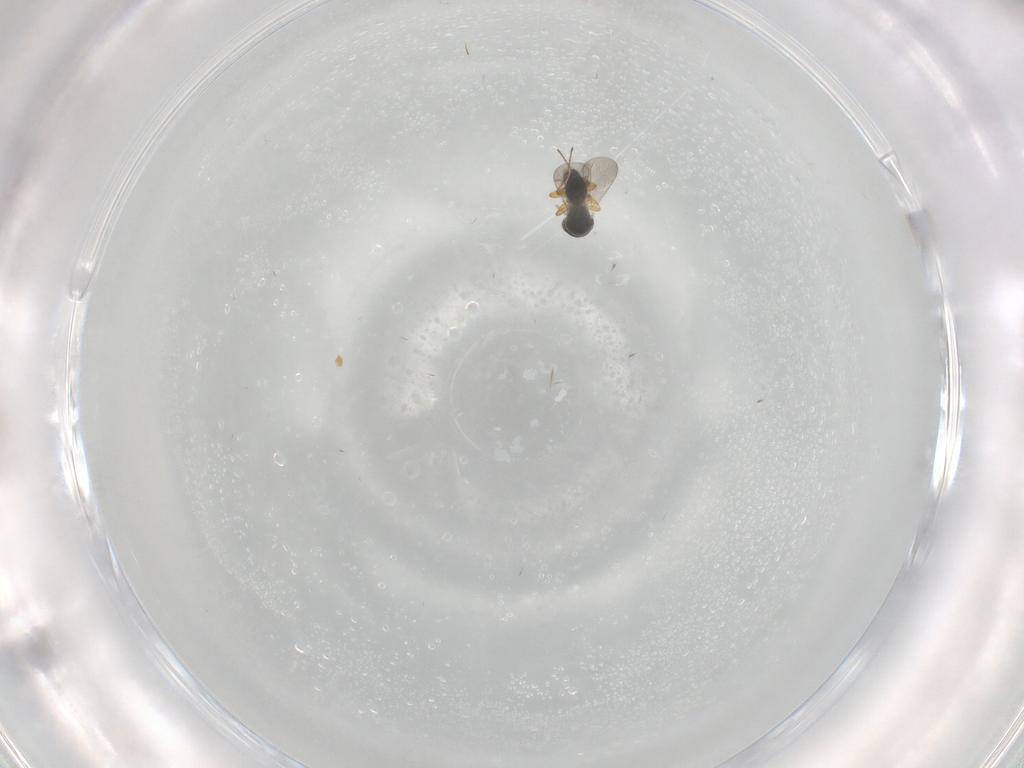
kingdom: Animalia
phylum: Arthropoda
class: Insecta
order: Hymenoptera
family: Platygastridae
